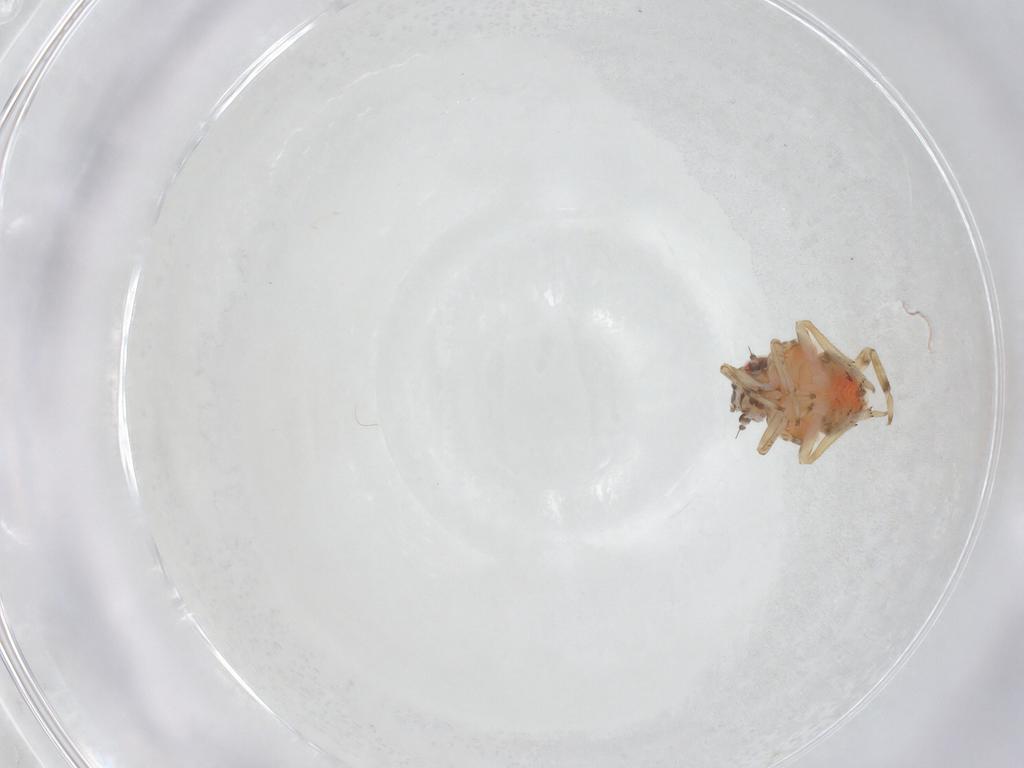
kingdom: Animalia
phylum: Arthropoda
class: Insecta
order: Hemiptera
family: Issidae
